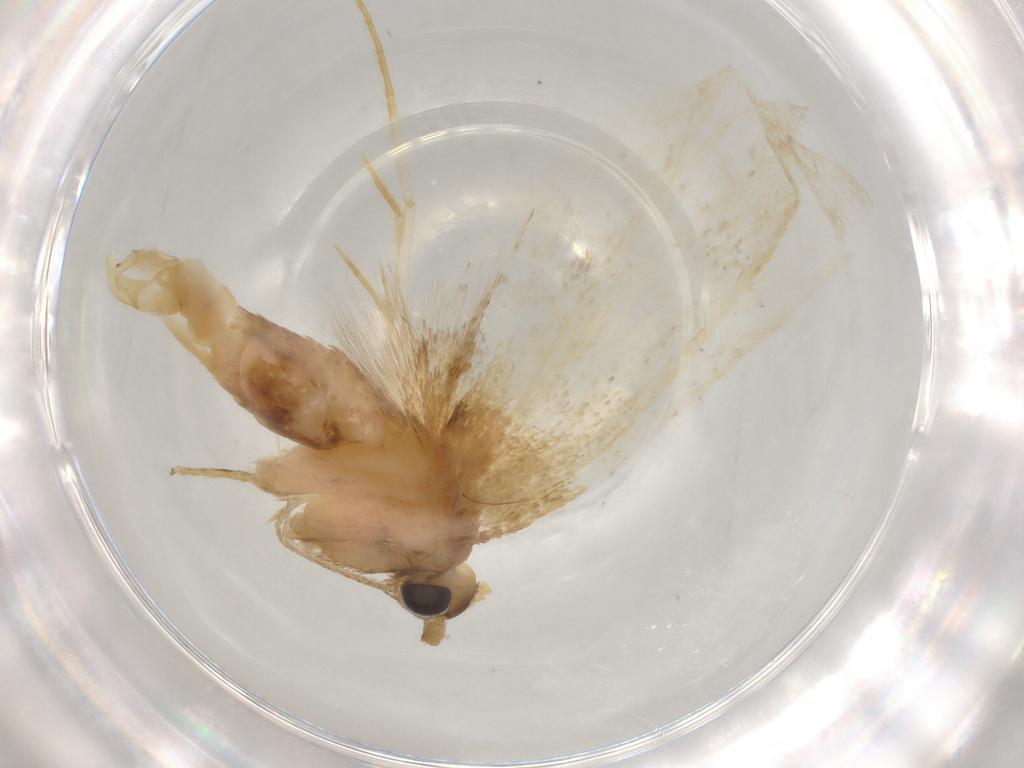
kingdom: Animalia
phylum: Arthropoda
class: Insecta
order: Lepidoptera
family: Lecithoceridae
